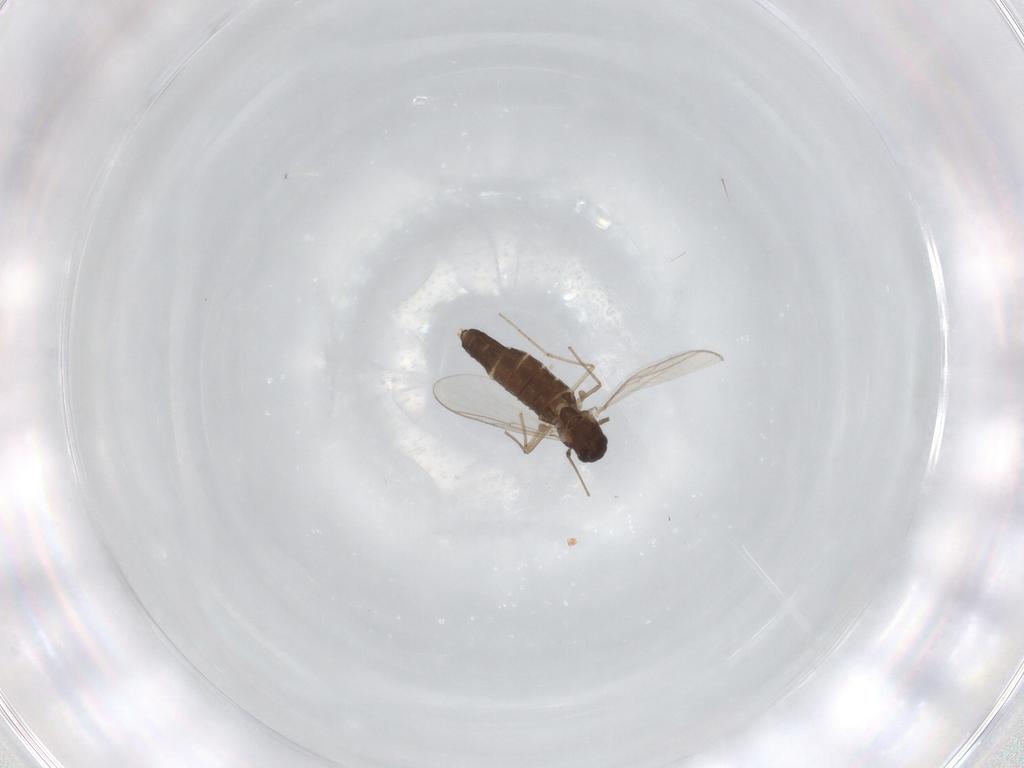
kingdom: Animalia
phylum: Arthropoda
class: Insecta
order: Diptera
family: Chironomidae
